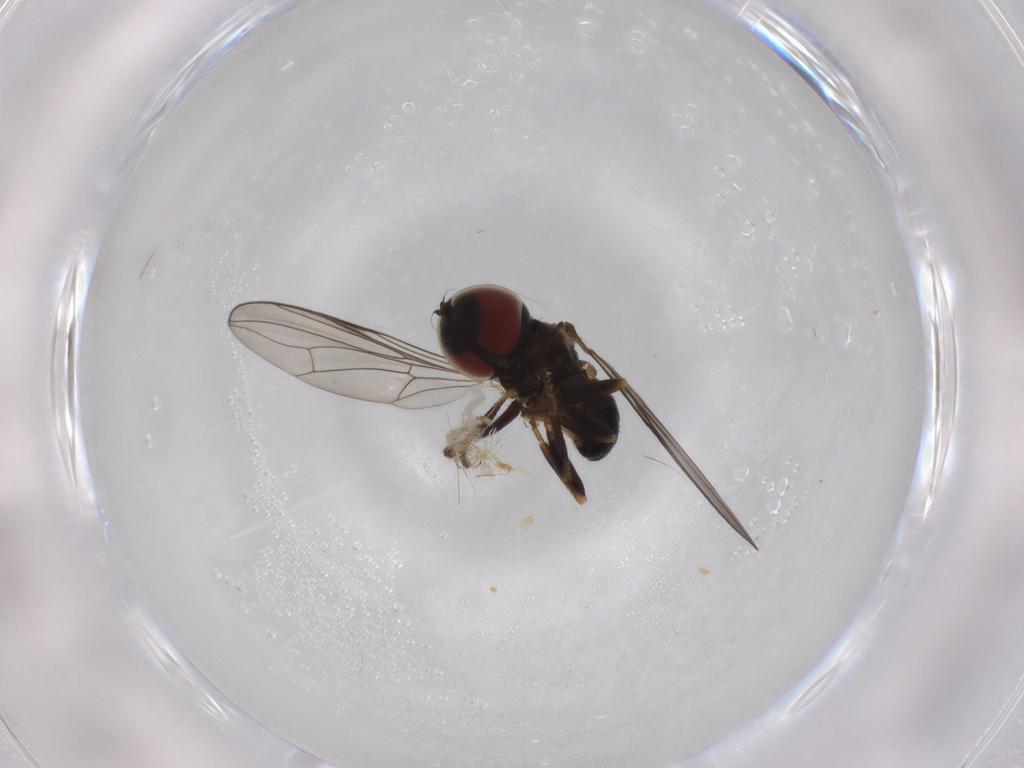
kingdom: Animalia
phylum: Arthropoda
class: Insecta
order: Diptera
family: Pipunculidae
